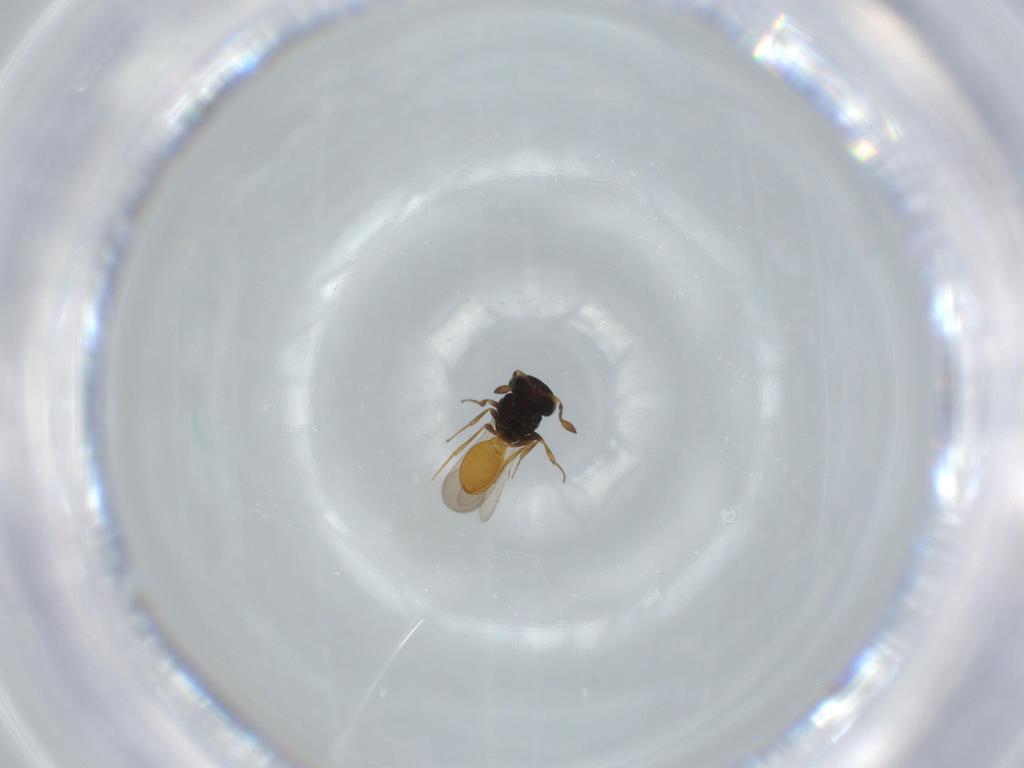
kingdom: Animalia
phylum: Arthropoda
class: Insecta
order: Hymenoptera
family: Scelionidae
